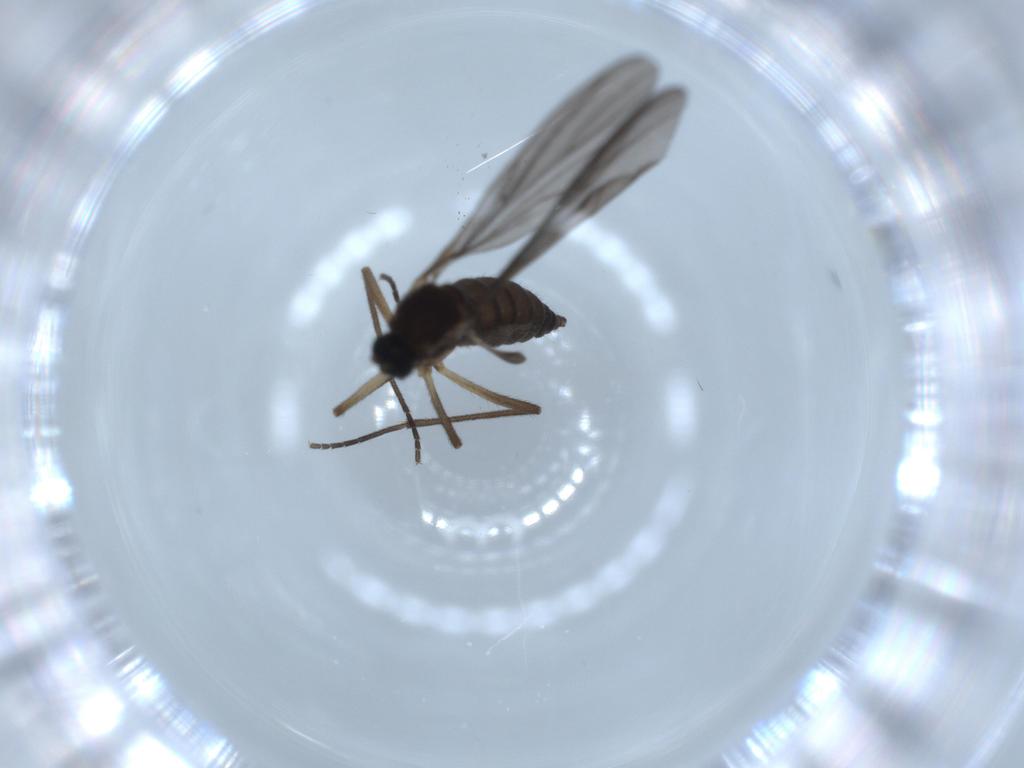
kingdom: Animalia
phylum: Arthropoda
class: Insecta
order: Diptera
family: Sciaridae
